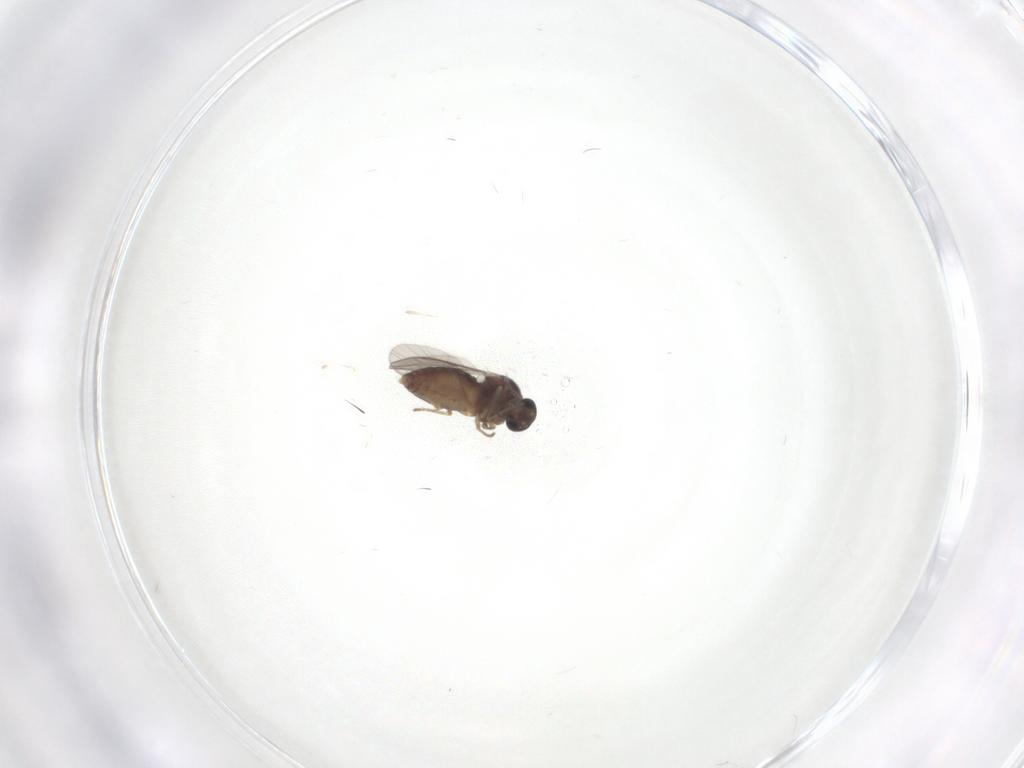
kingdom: Animalia
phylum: Arthropoda
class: Insecta
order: Diptera
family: Ceratopogonidae
